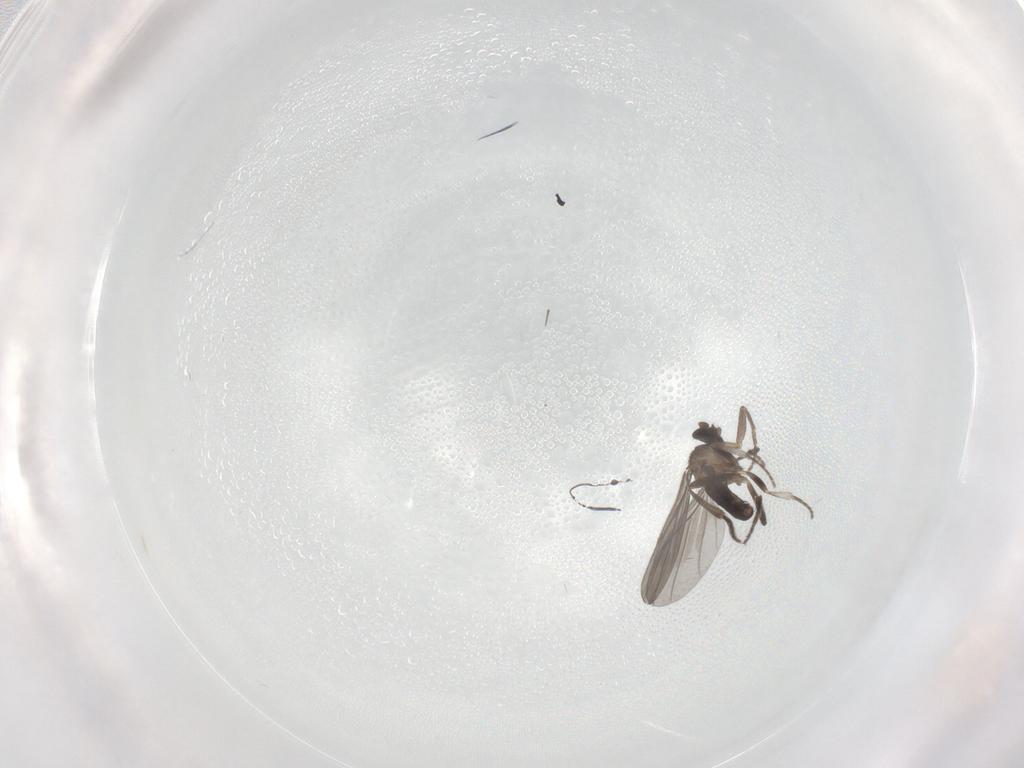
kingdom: Animalia
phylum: Arthropoda
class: Insecta
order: Diptera
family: Phoridae
